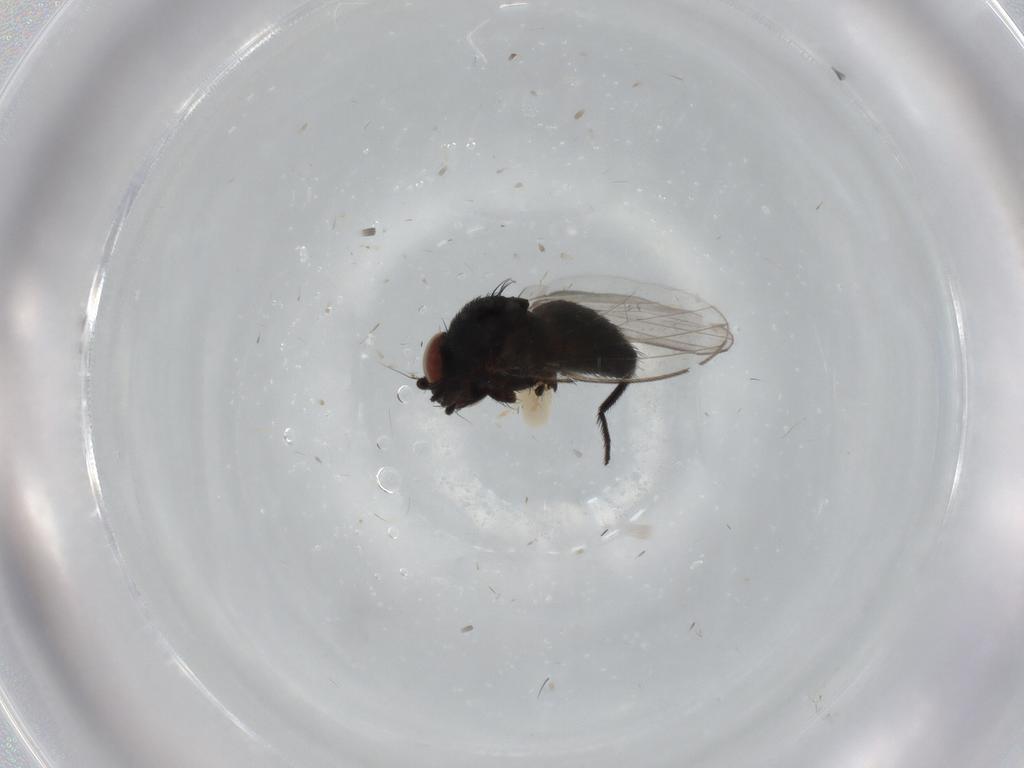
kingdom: Animalia
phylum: Arthropoda
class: Insecta
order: Diptera
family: Milichiidae
